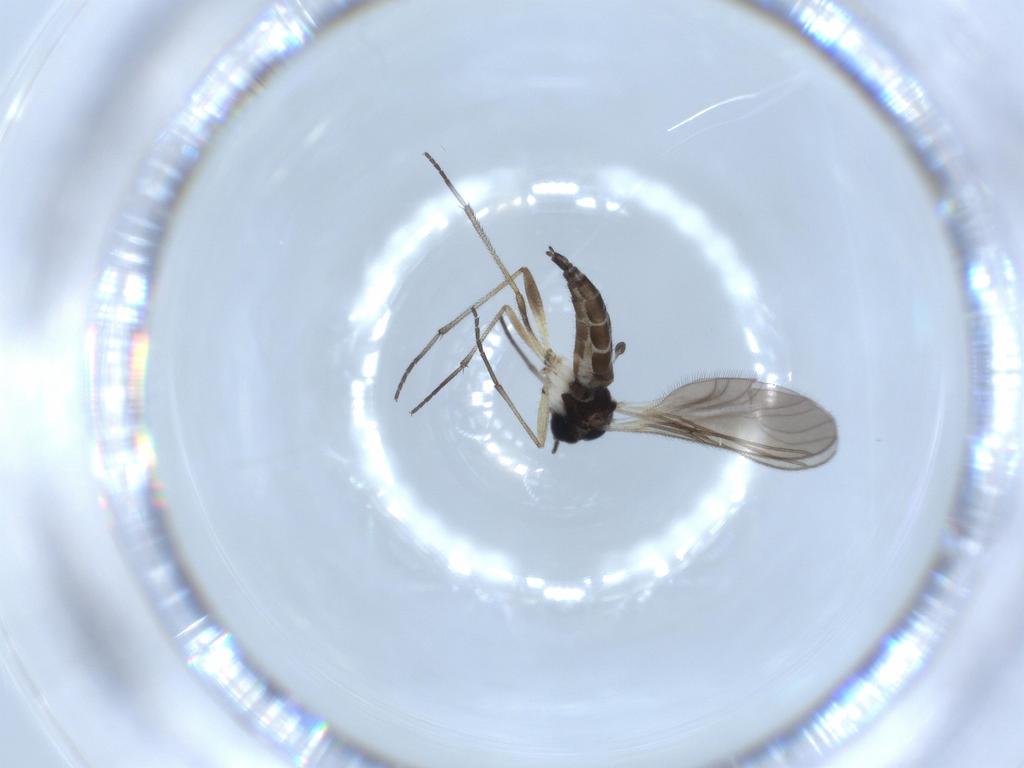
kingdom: Animalia
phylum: Arthropoda
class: Insecta
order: Diptera
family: Sciaridae
